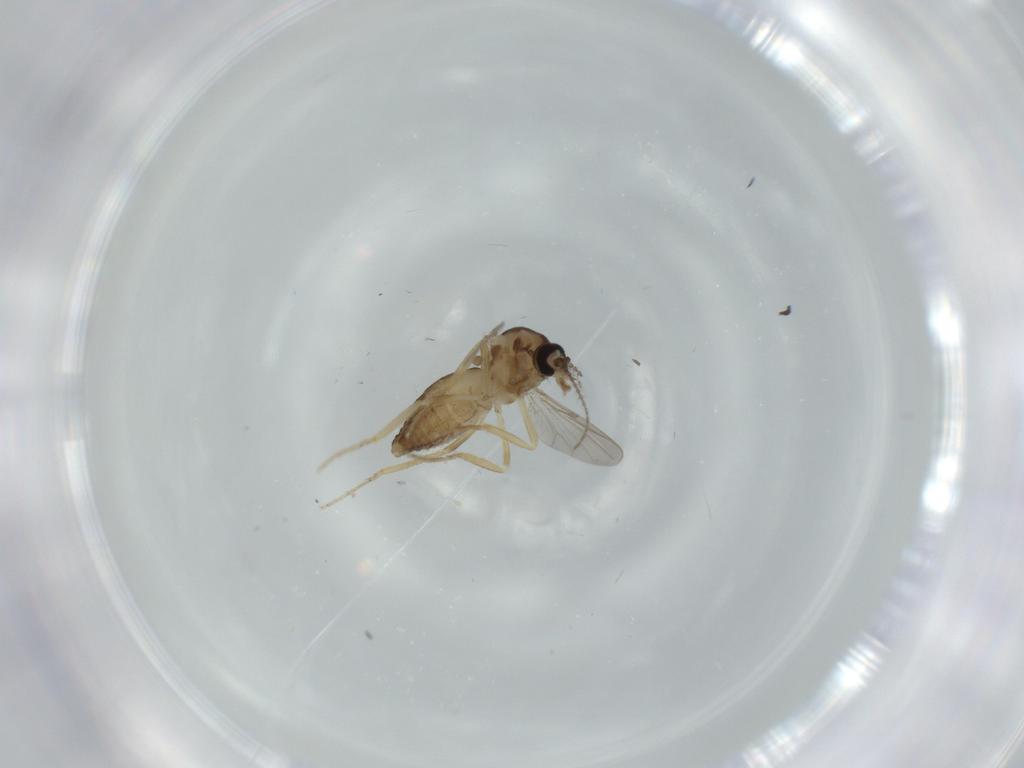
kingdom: Animalia
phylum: Arthropoda
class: Insecta
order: Diptera
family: Ceratopogonidae
